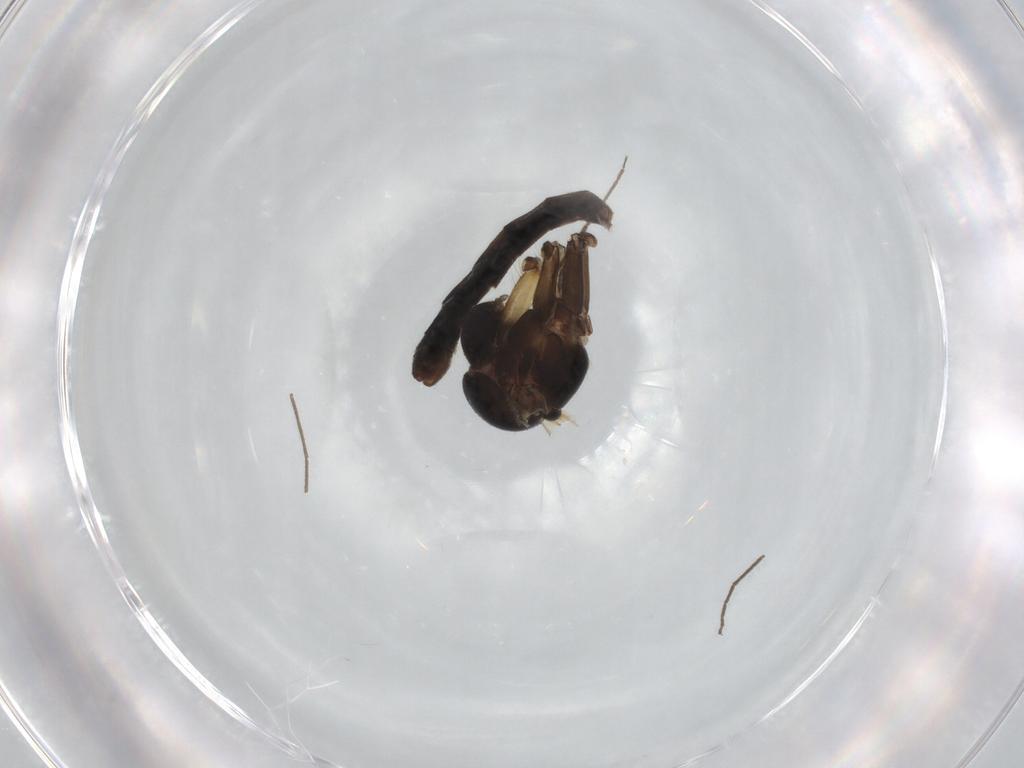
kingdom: Animalia
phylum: Arthropoda
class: Insecta
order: Diptera
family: Mycetophilidae
